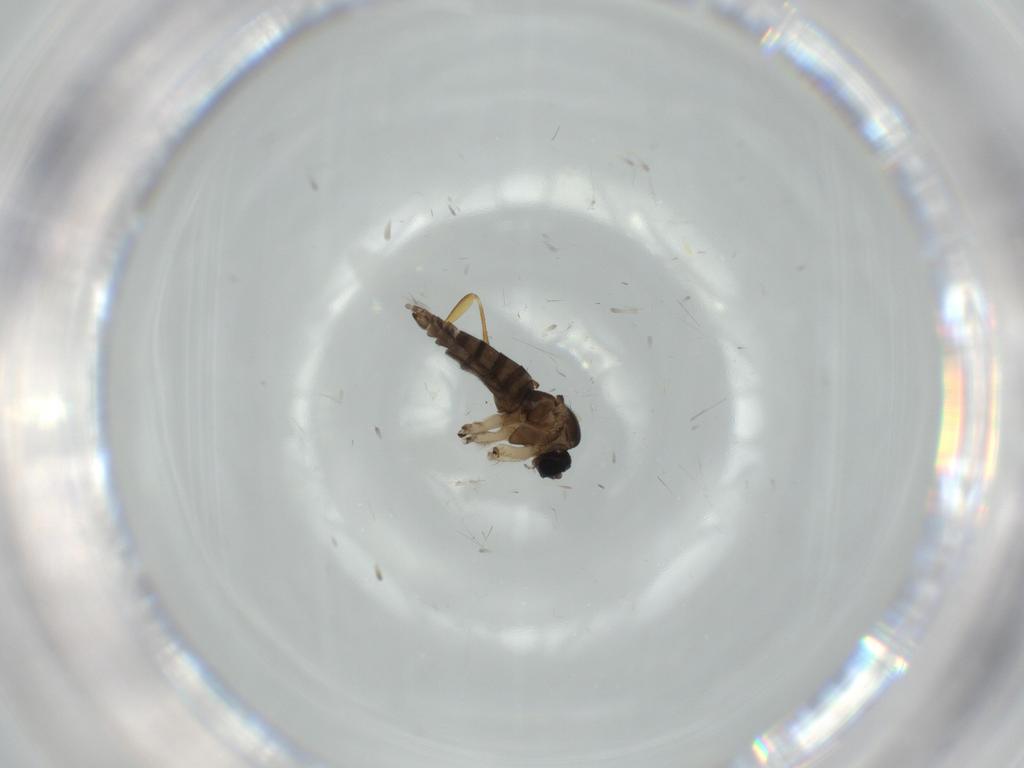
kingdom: Animalia
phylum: Arthropoda
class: Insecta
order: Diptera
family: Sciaridae
